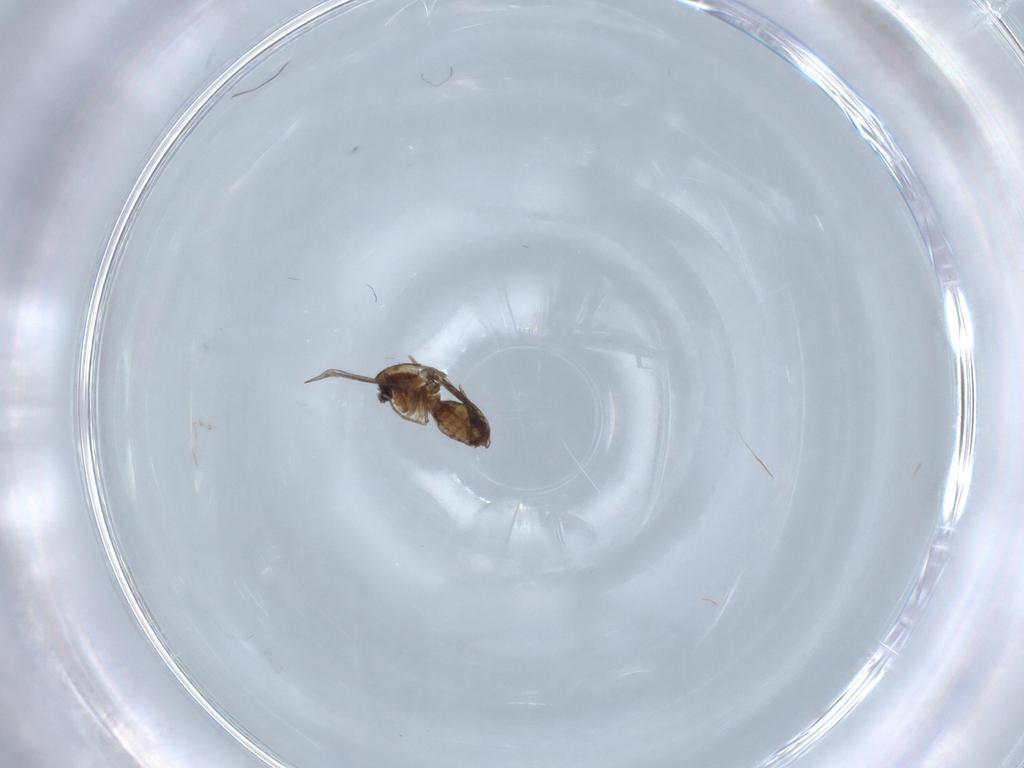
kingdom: Animalia
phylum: Arthropoda
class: Insecta
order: Diptera
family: Chironomidae
